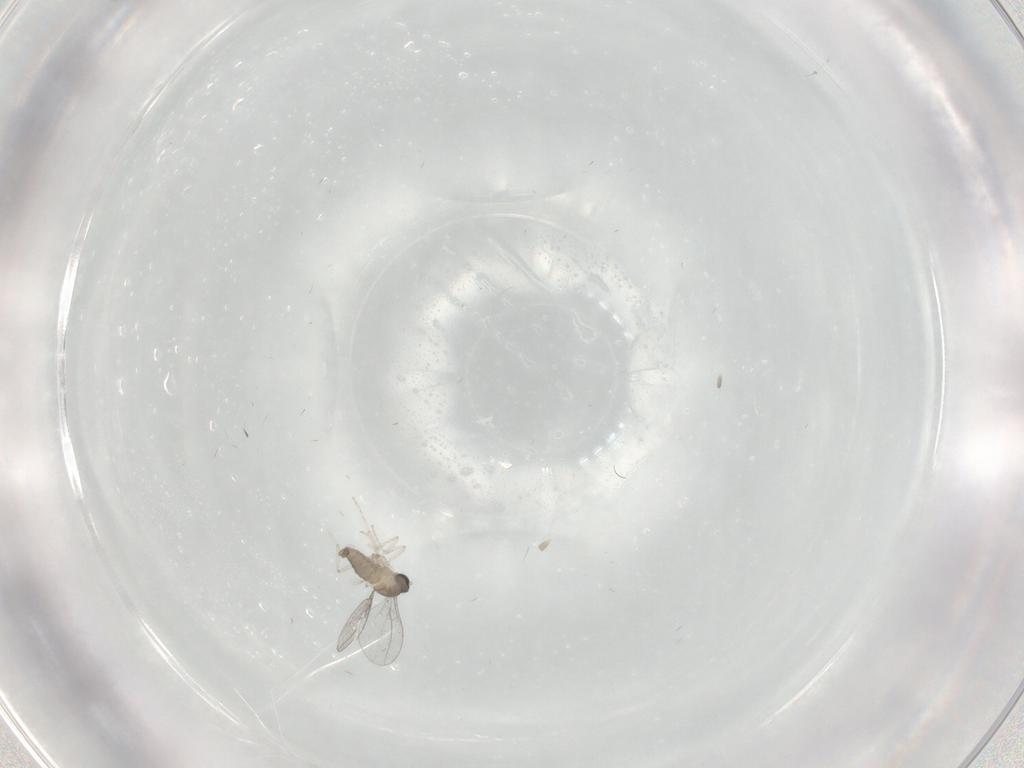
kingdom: Animalia
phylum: Arthropoda
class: Insecta
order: Diptera
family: Cecidomyiidae
